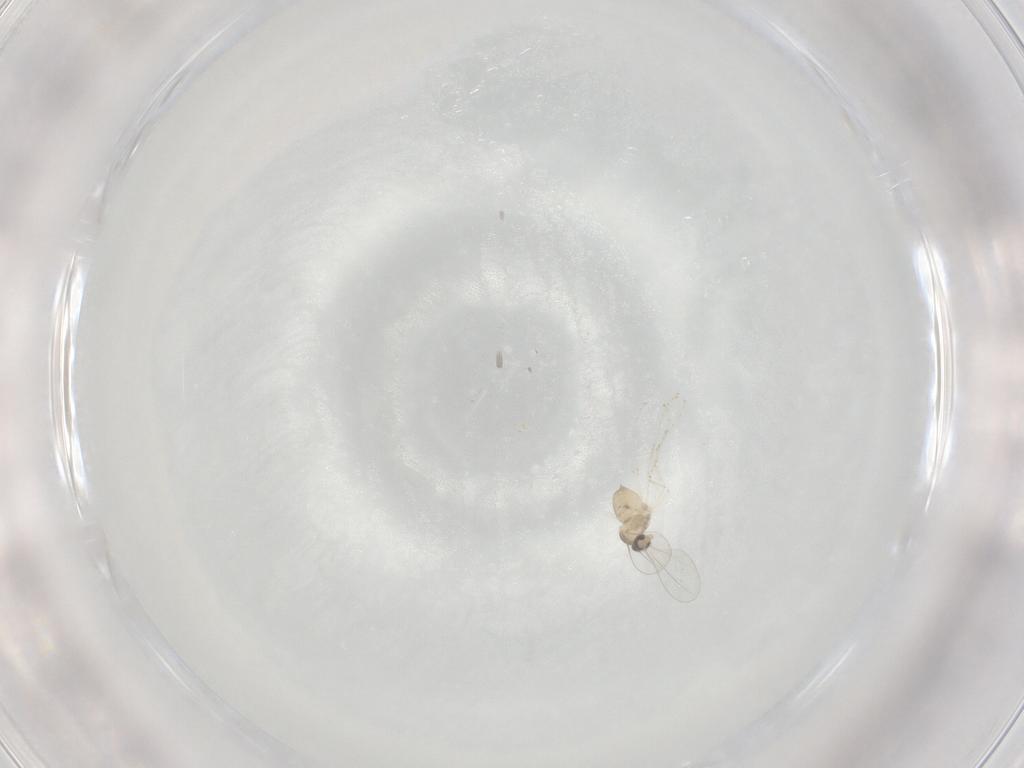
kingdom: Animalia
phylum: Arthropoda
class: Insecta
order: Diptera
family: Cecidomyiidae
